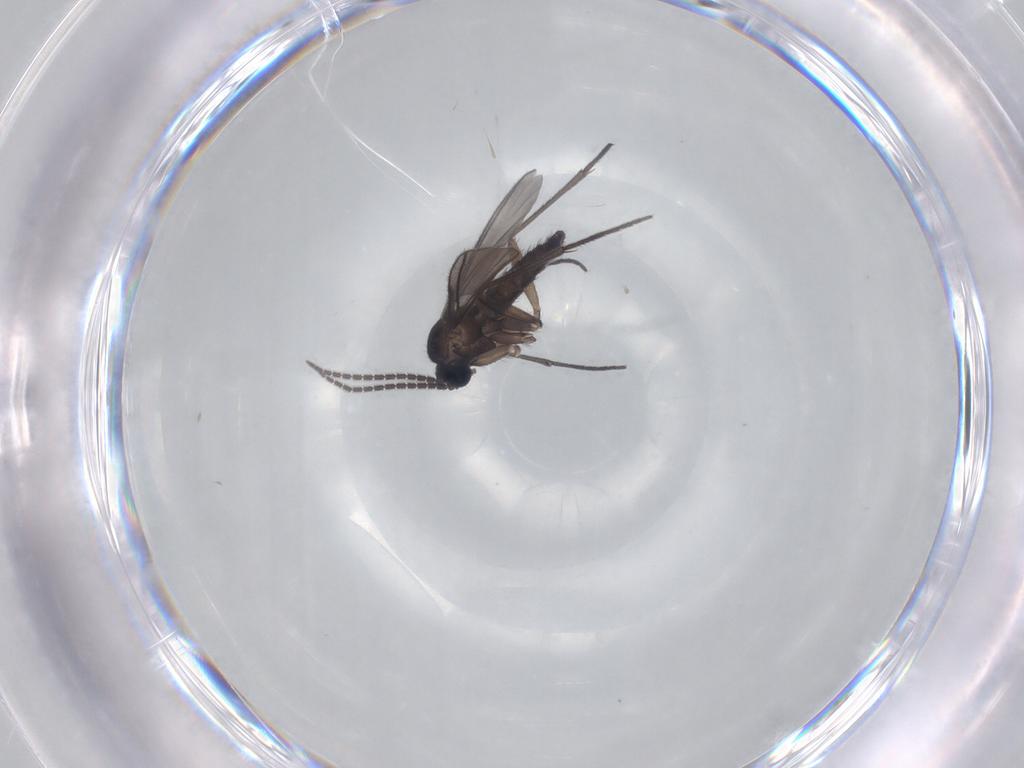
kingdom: Animalia
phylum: Arthropoda
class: Insecta
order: Diptera
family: Sciaridae
